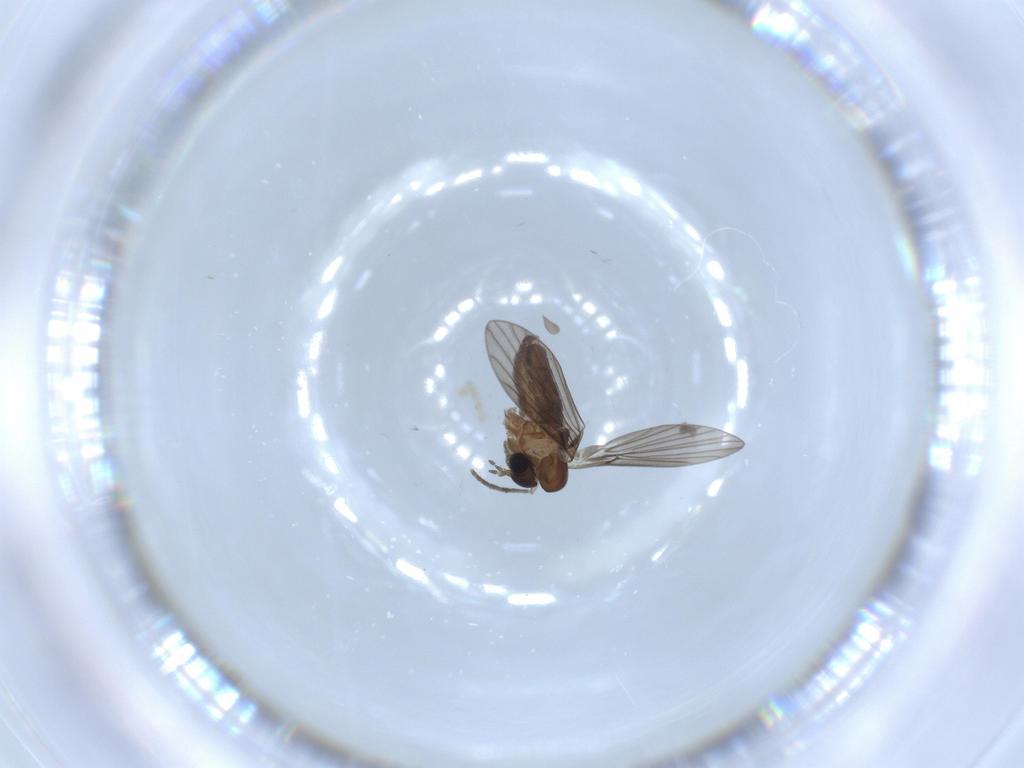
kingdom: Animalia
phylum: Arthropoda
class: Insecta
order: Diptera
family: Psychodidae
